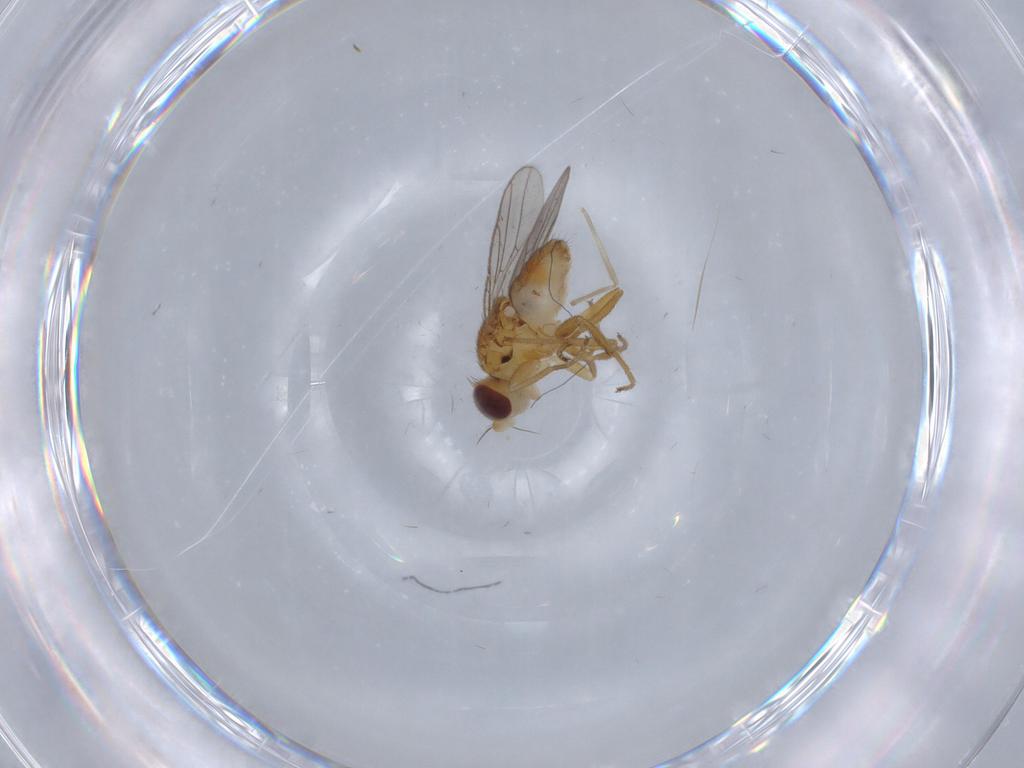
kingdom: Animalia
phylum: Arthropoda
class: Insecta
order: Diptera
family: Chloropidae
